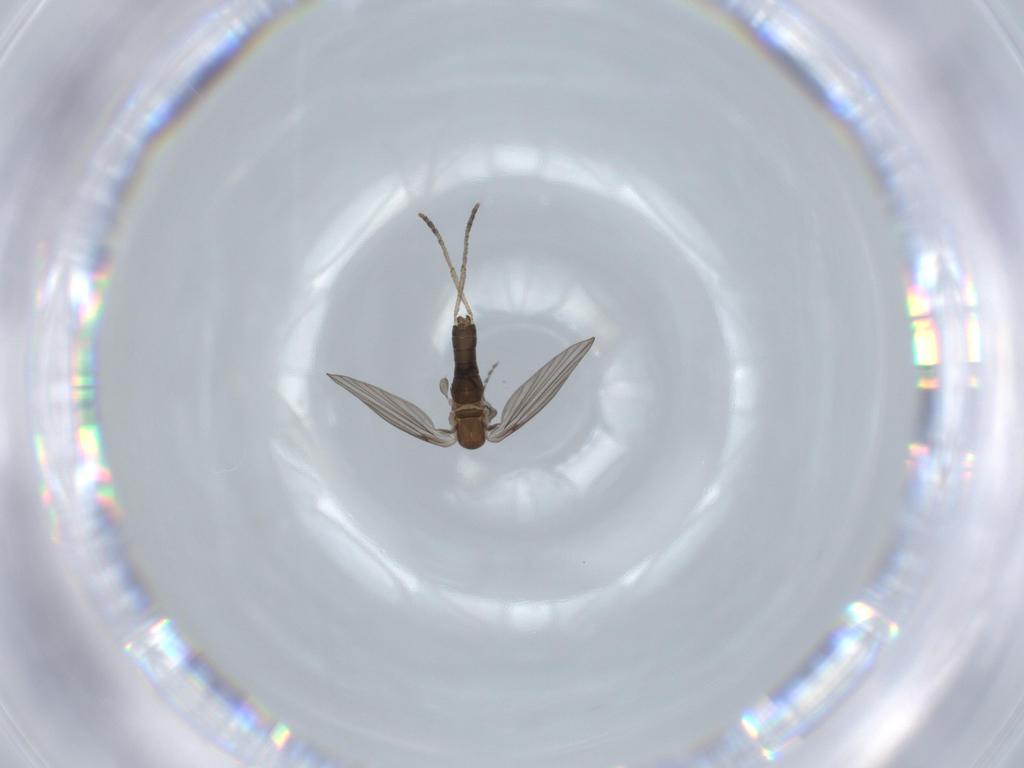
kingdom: Animalia
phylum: Arthropoda
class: Insecta
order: Diptera
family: Psychodidae
